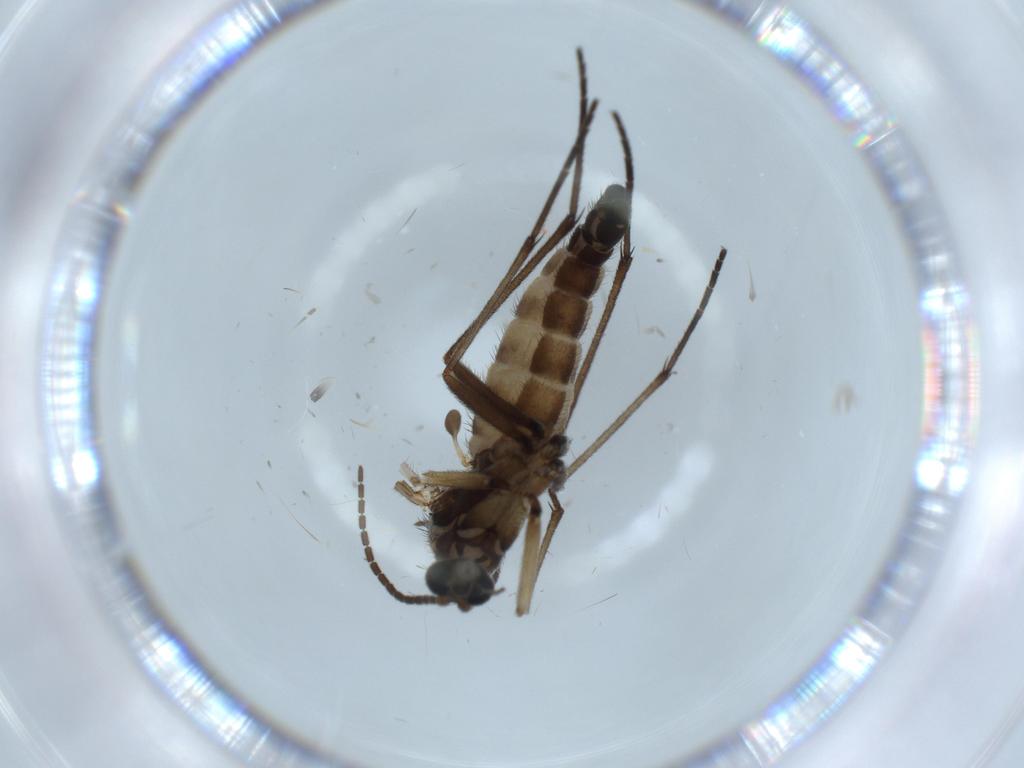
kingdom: Animalia
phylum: Arthropoda
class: Insecta
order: Diptera
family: Sciaridae
